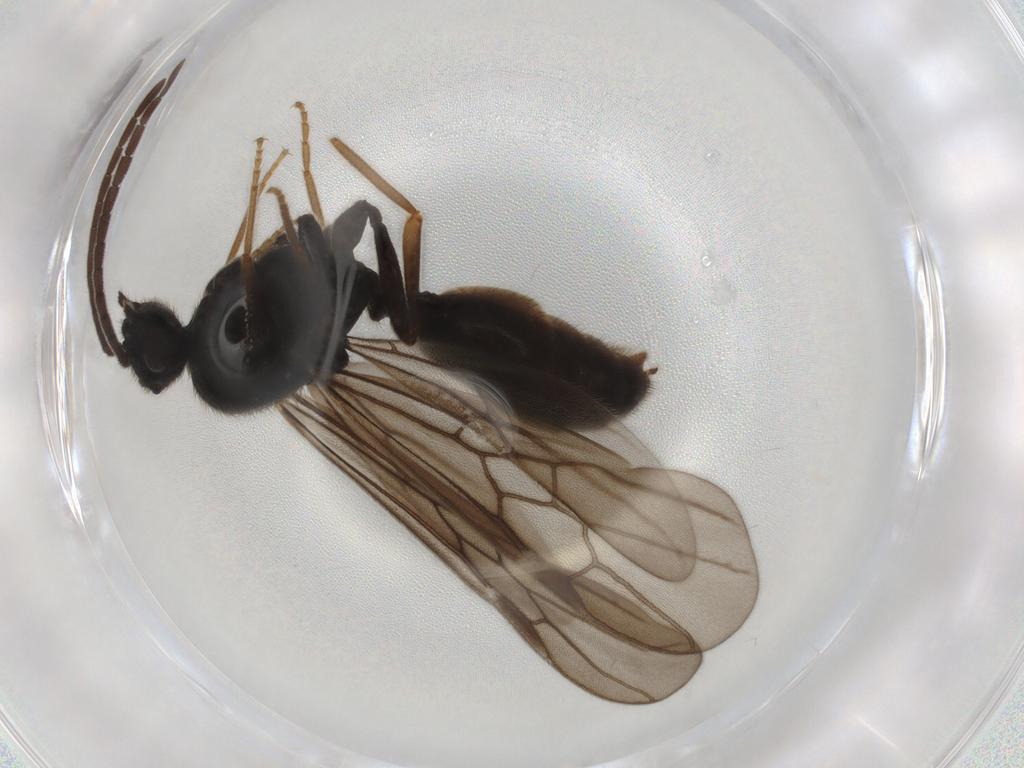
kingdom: Animalia
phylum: Arthropoda
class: Insecta
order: Hymenoptera
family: Formicidae
